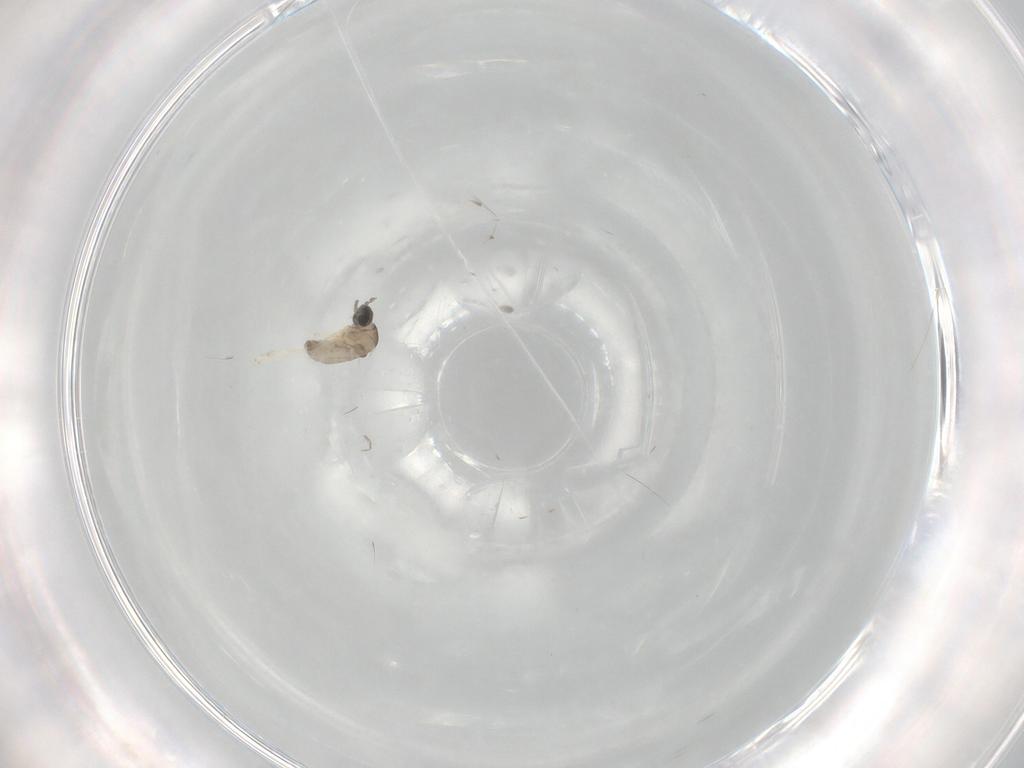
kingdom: Animalia
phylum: Arthropoda
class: Insecta
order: Diptera
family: Cecidomyiidae
